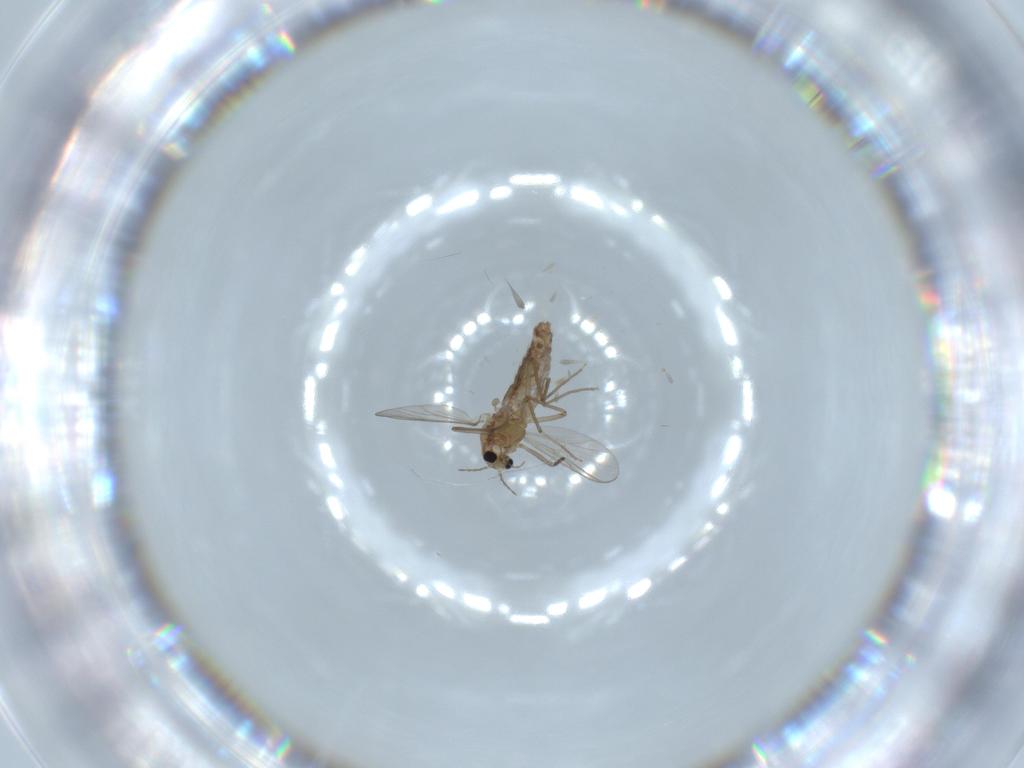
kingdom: Animalia
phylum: Arthropoda
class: Insecta
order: Diptera
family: Chironomidae
